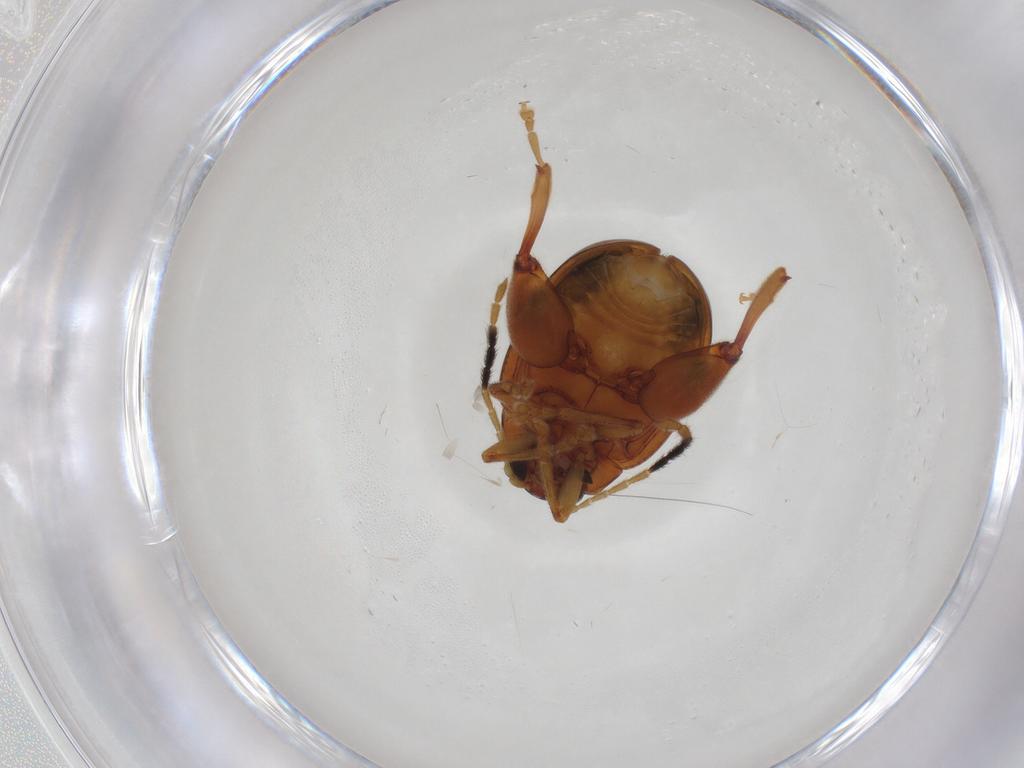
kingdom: Animalia
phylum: Arthropoda
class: Insecta
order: Coleoptera
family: Chrysomelidae
